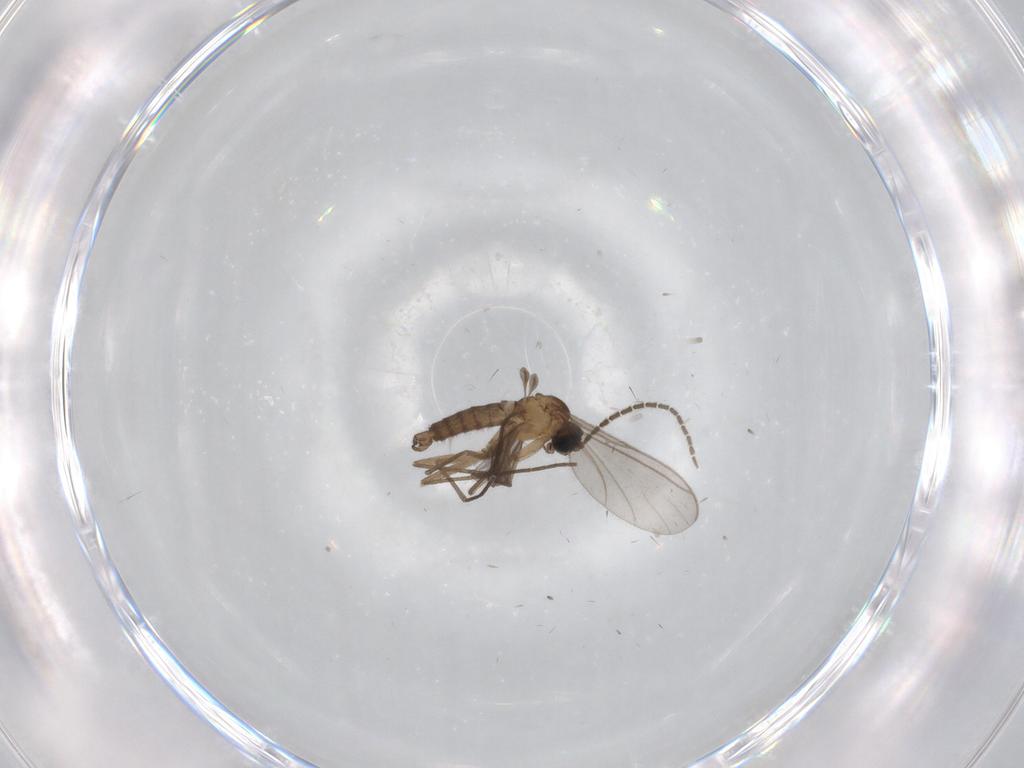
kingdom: Animalia
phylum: Arthropoda
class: Insecta
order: Diptera
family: Sciaridae
